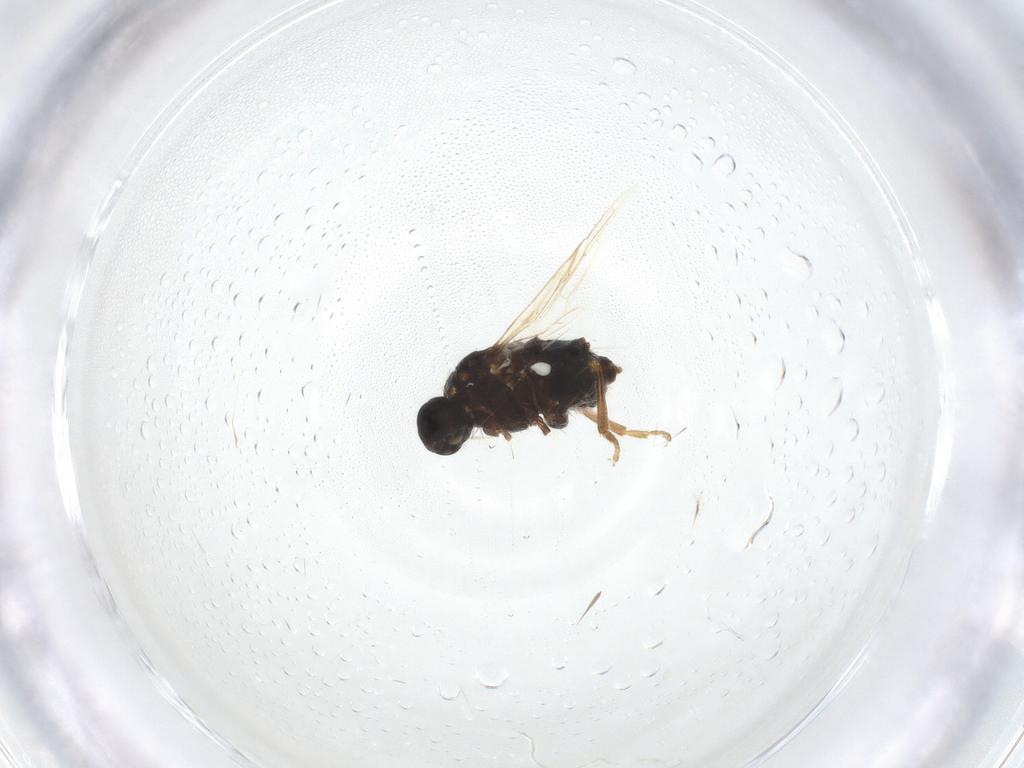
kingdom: Animalia
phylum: Arthropoda
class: Insecta
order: Diptera
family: Scenopinidae
